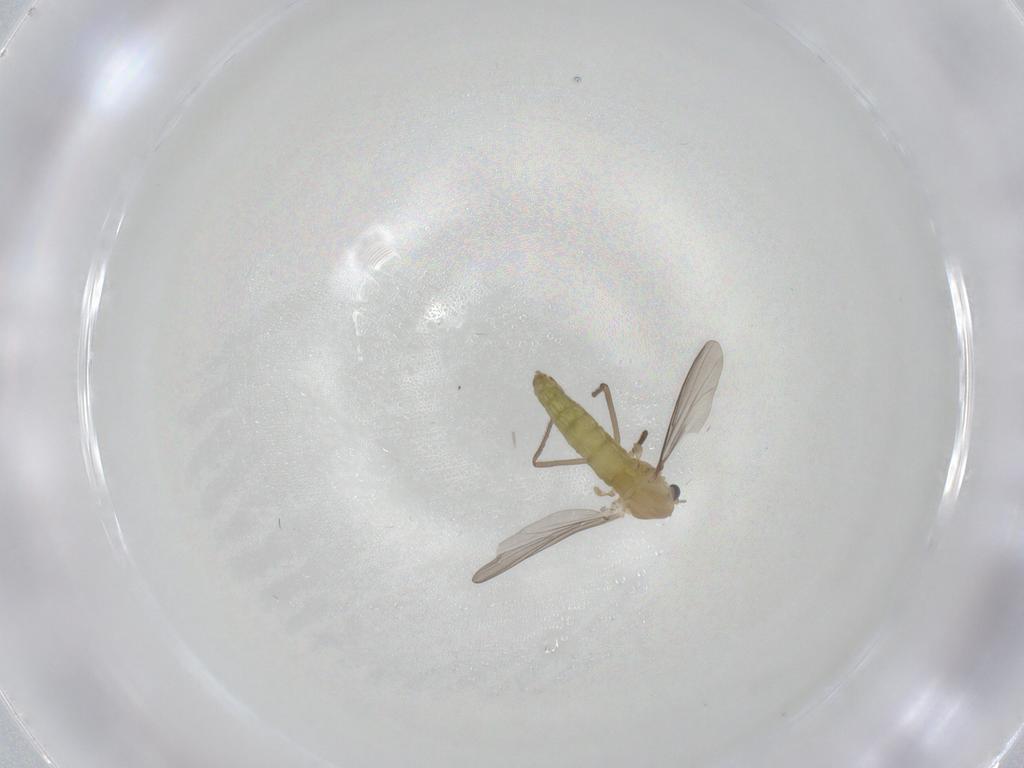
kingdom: Animalia
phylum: Arthropoda
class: Insecta
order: Diptera
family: Chironomidae
